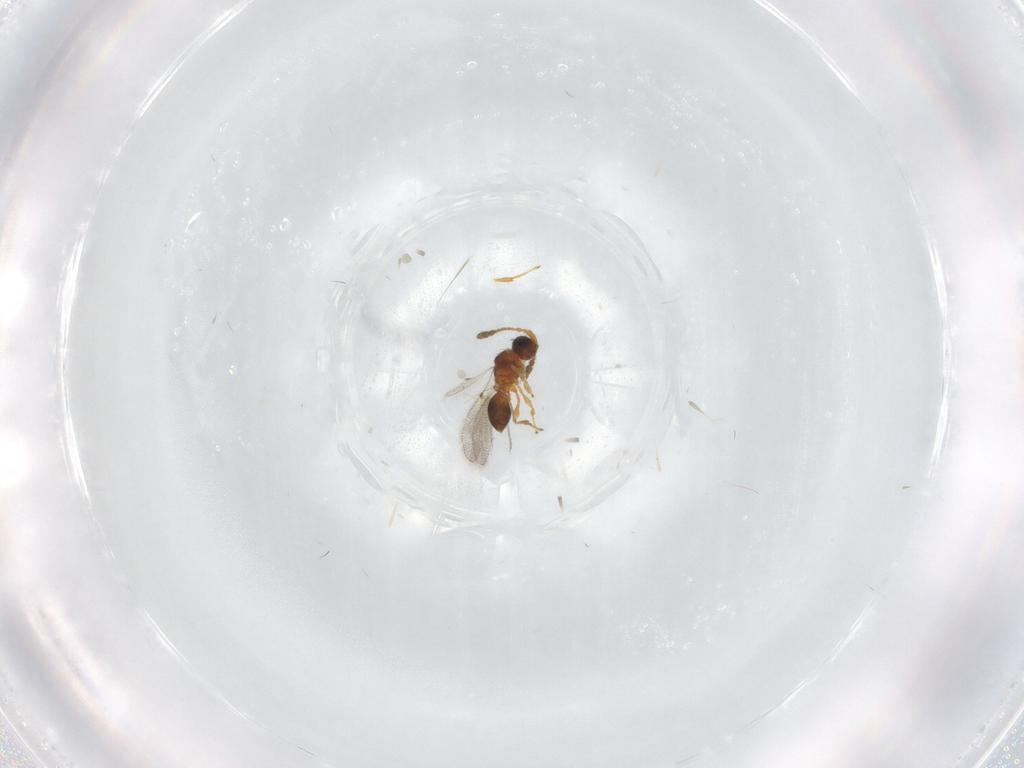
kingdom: Animalia
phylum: Arthropoda
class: Insecta
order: Hymenoptera
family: Diapriidae
